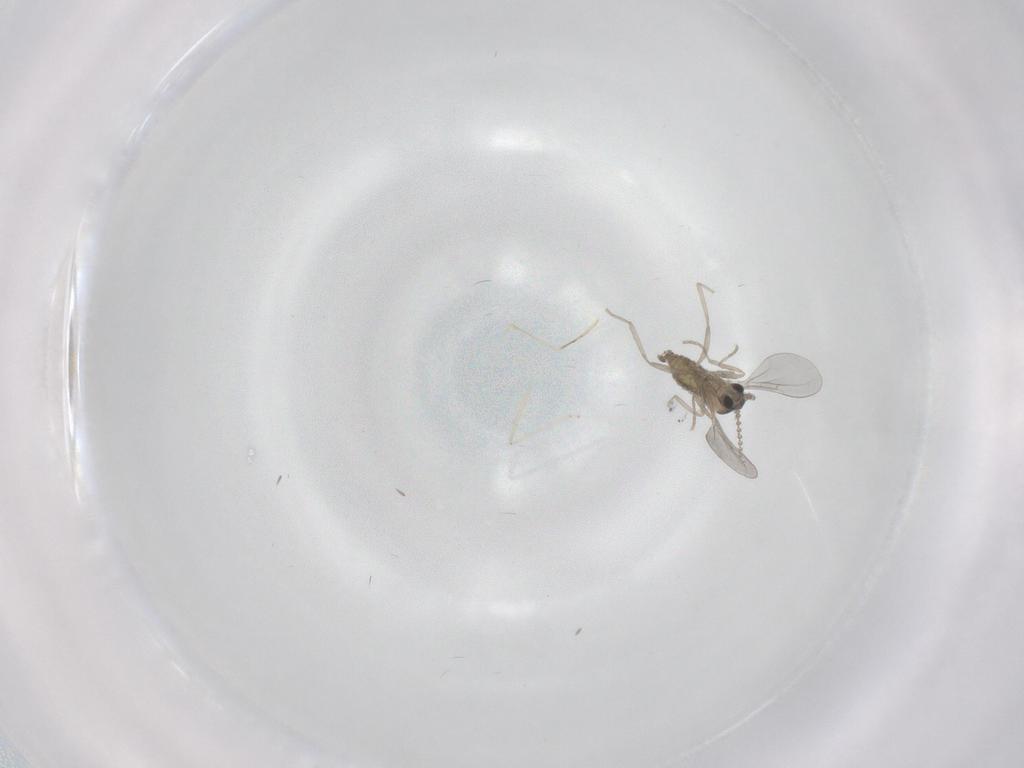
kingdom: Animalia
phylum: Arthropoda
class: Insecta
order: Diptera
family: Cecidomyiidae
